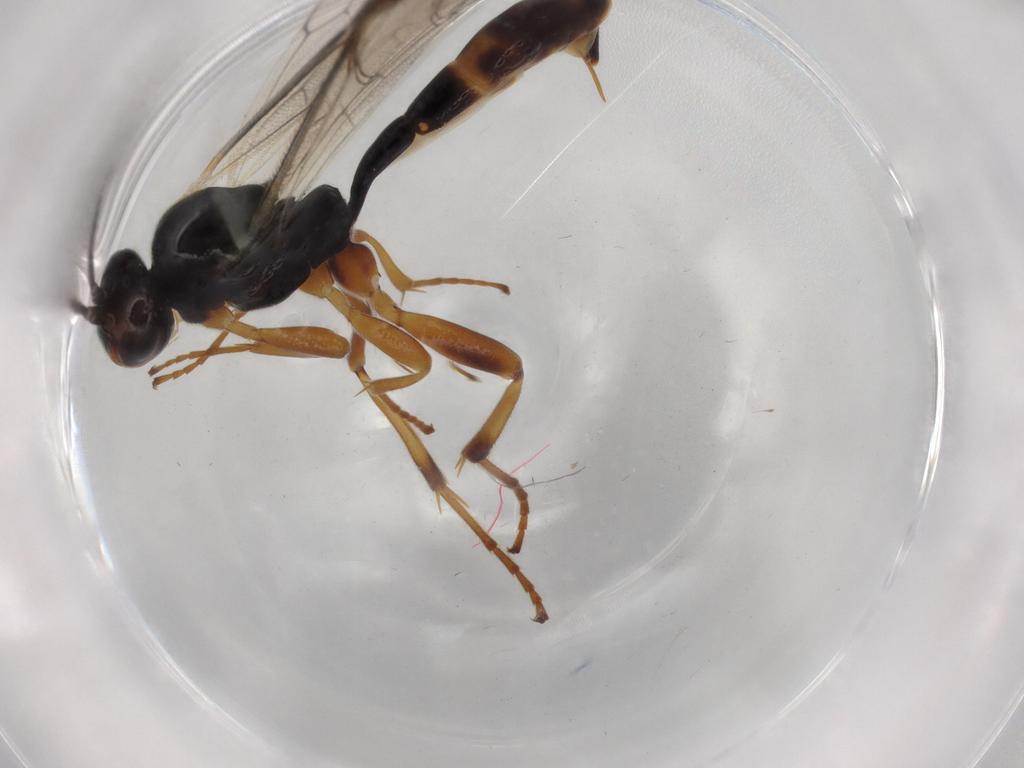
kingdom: Animalia
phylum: Arthropoda
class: Insecta
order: Hymenoptera
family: Ichneumonidae
